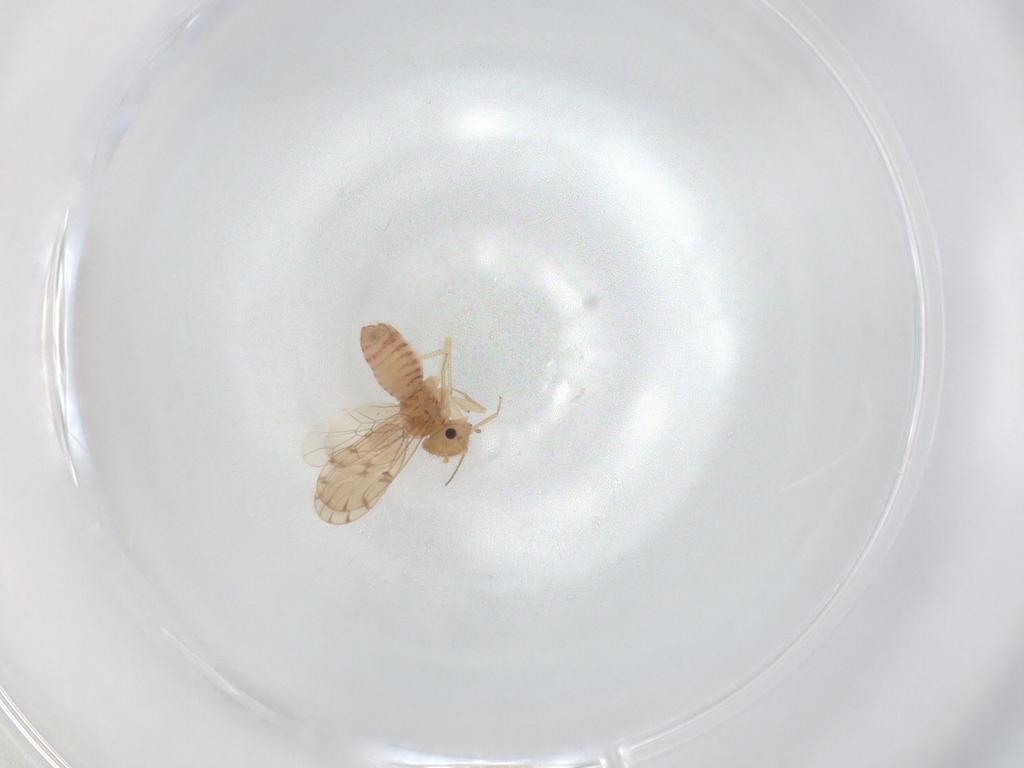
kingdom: Animalia
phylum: Arthropoda
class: Insecta
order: Psocodea
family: Ectopsocidae
